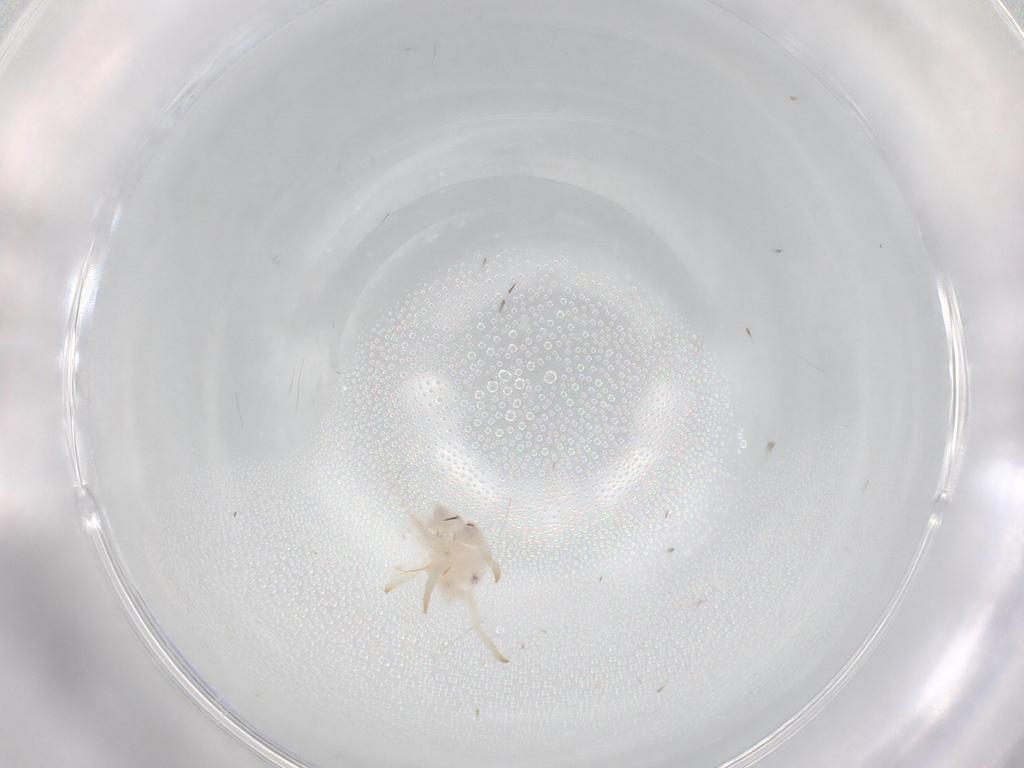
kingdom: Animalia
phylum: Arthropoda
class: Insecta
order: Hemiptera
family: Flatidae
